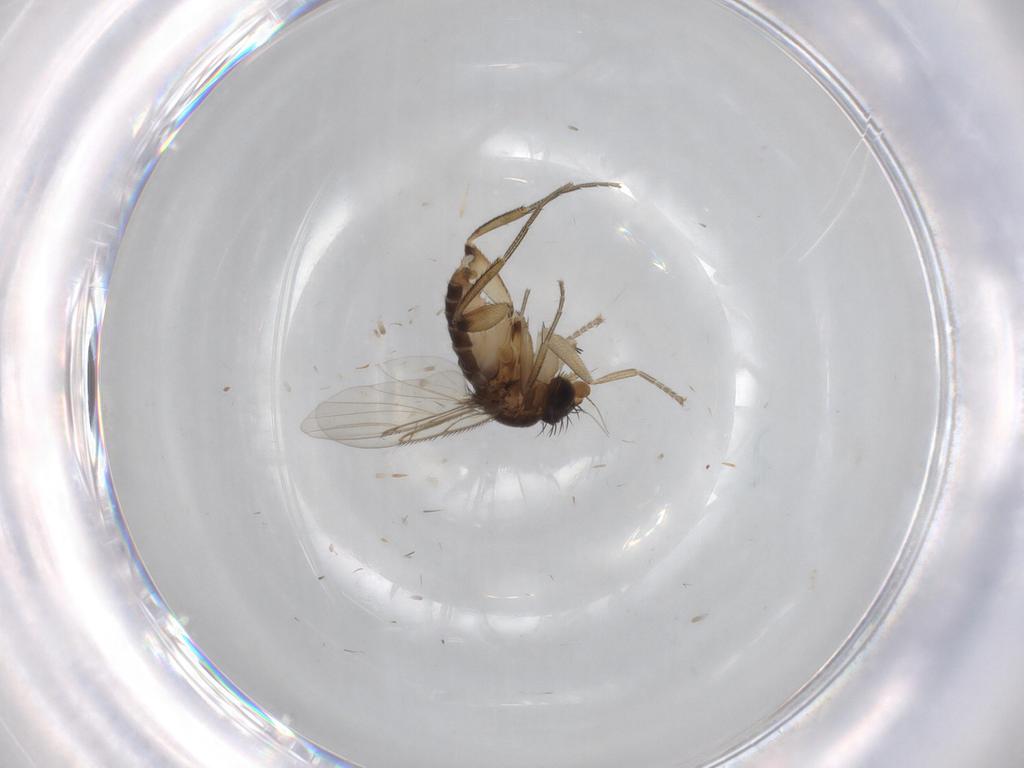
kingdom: Animalia
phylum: Arthropoda
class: Insecta
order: Diptera
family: Phoridae
